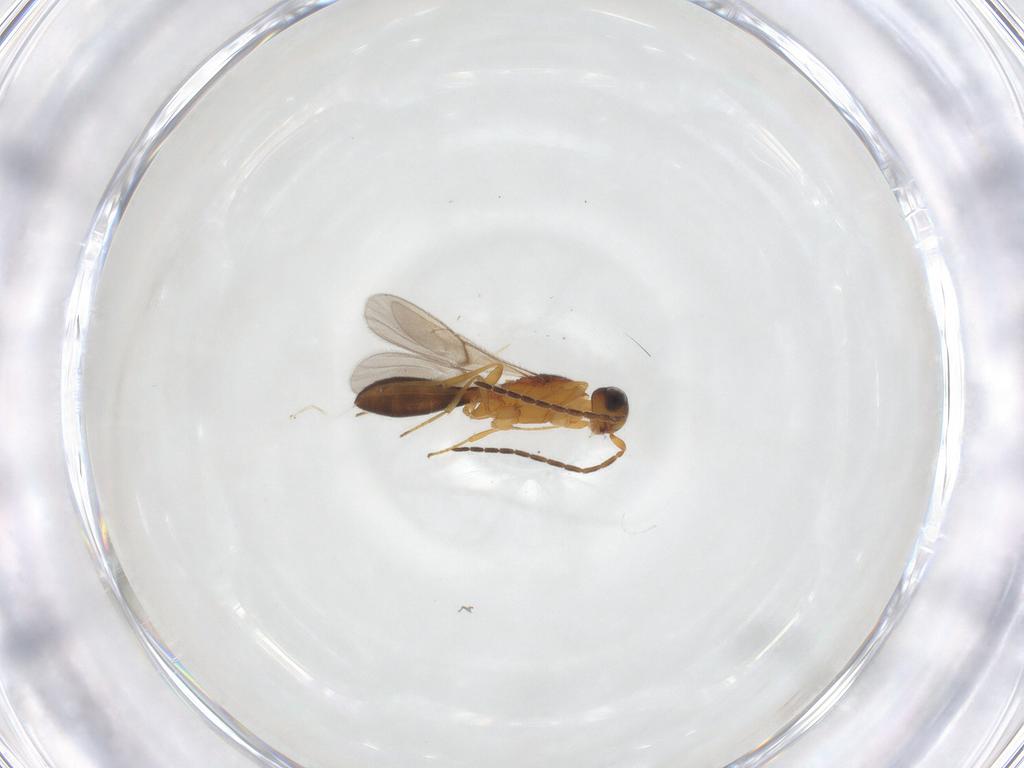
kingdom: Animalia
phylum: Arthropoda
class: Insecta
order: Hymenoptera
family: Scelionidae
